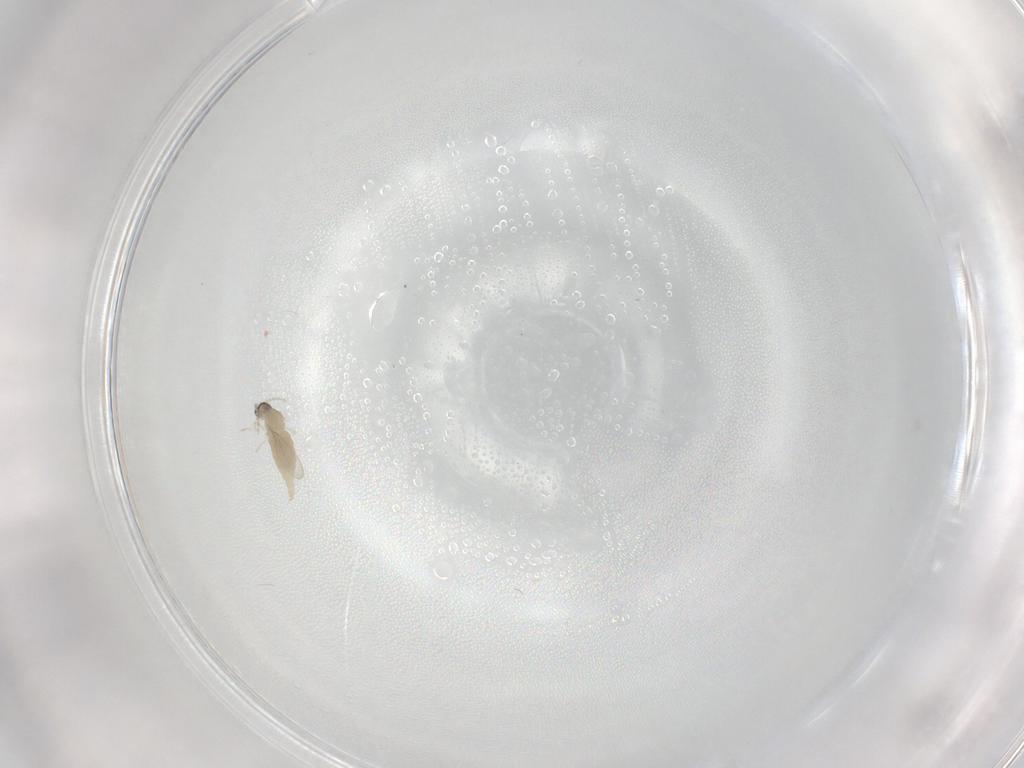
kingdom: Animalia
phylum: Arthropoda
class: Insecta
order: Diptera
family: Cecidomyiidae
